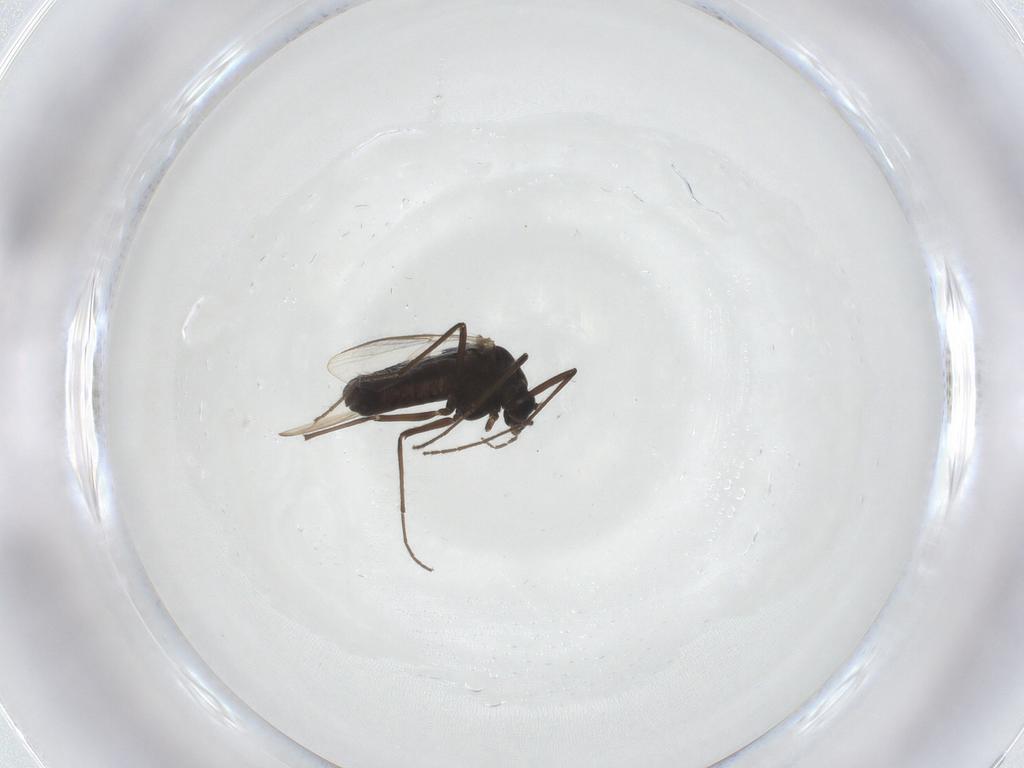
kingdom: Animalia
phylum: Arthropoda
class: Insecta
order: Diptera
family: Chironomidae
